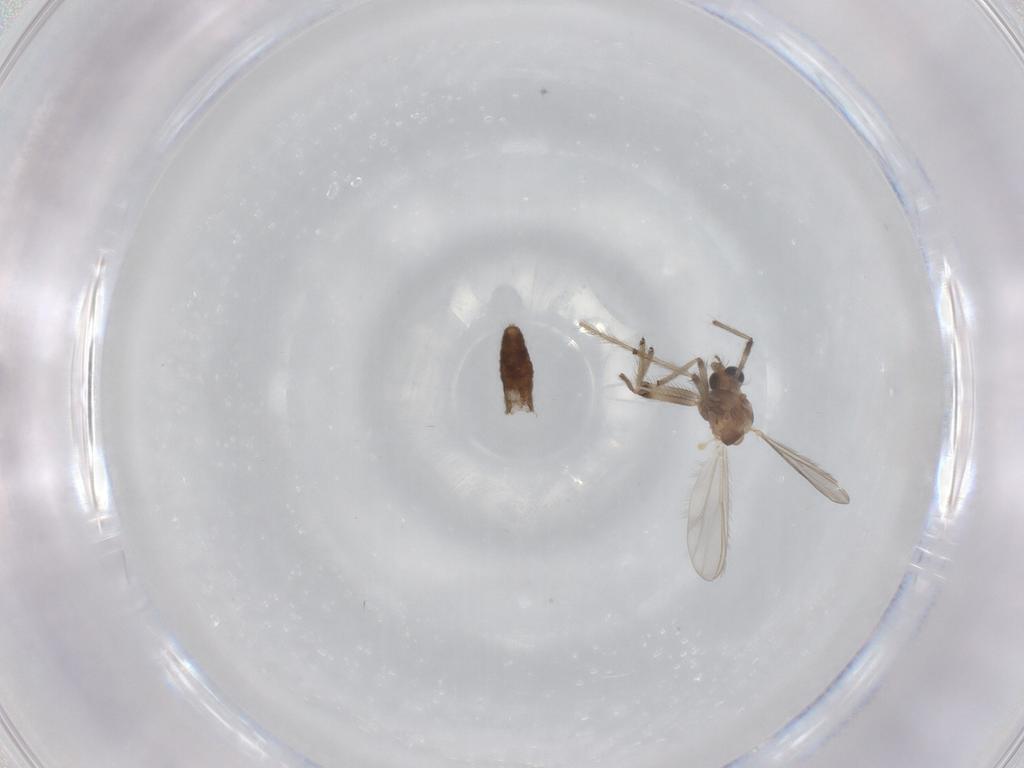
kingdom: Animalia
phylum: Arthropoda
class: Insecta
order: Diptera
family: Chironomidae
